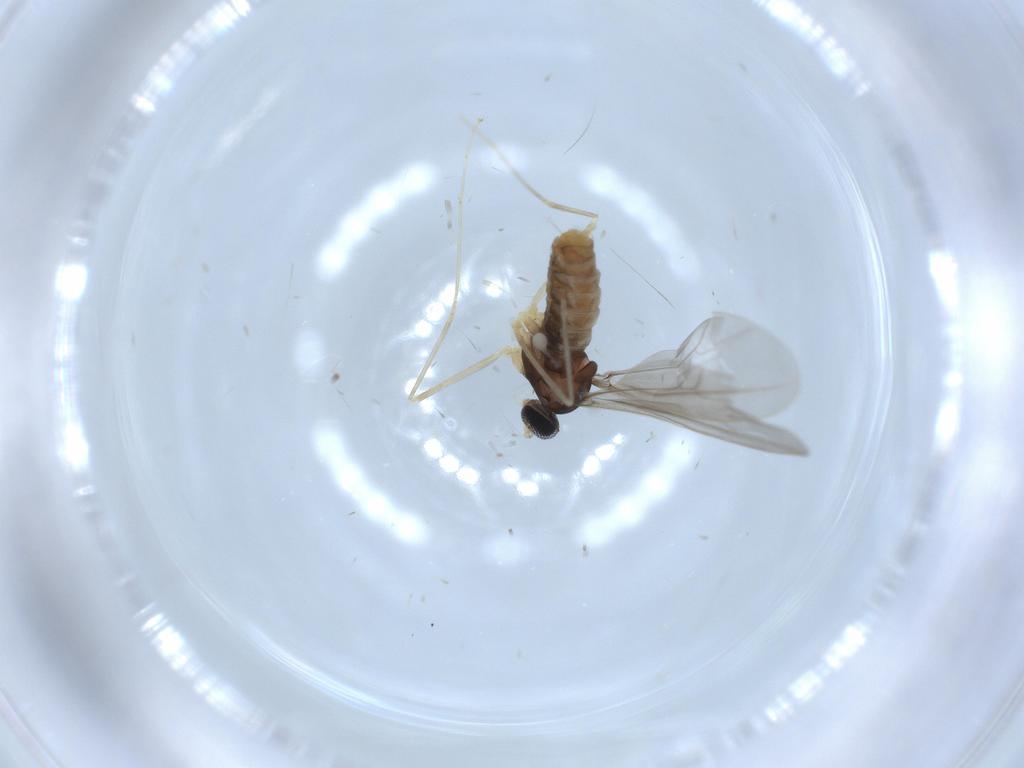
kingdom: Animalia
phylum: Arthropoda
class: Insecta
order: Diptera
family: Cecidomyiidae
